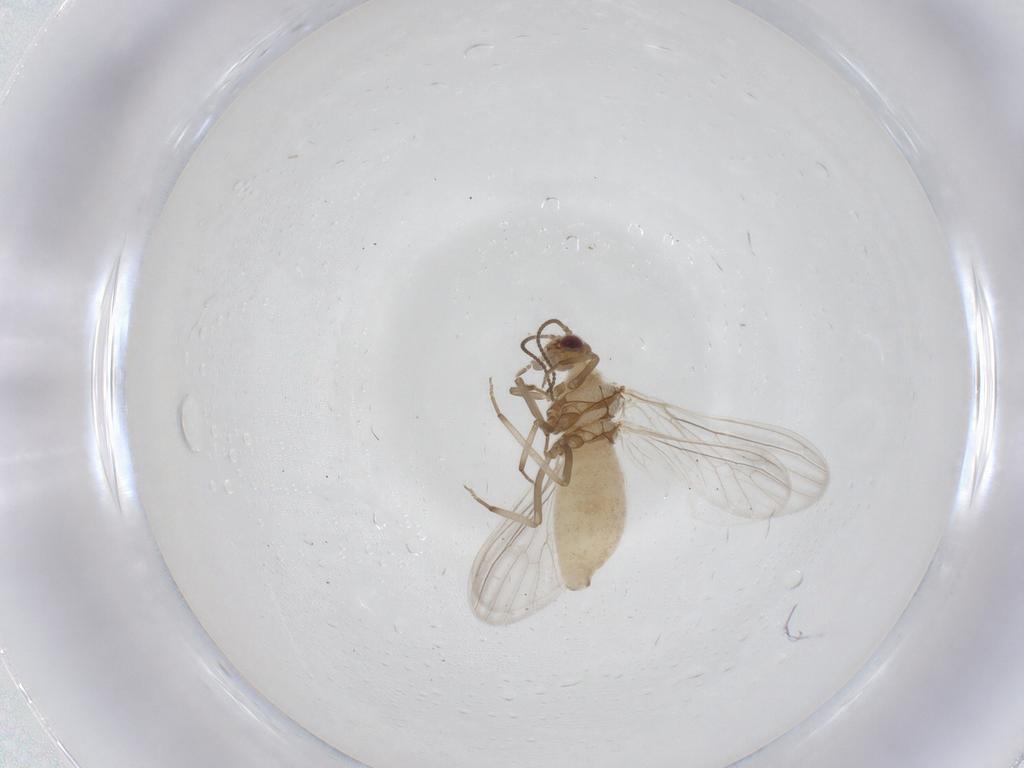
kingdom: Animalia
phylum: Arthropoda
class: Insecta
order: Neuroptera
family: Coniopterygidae
